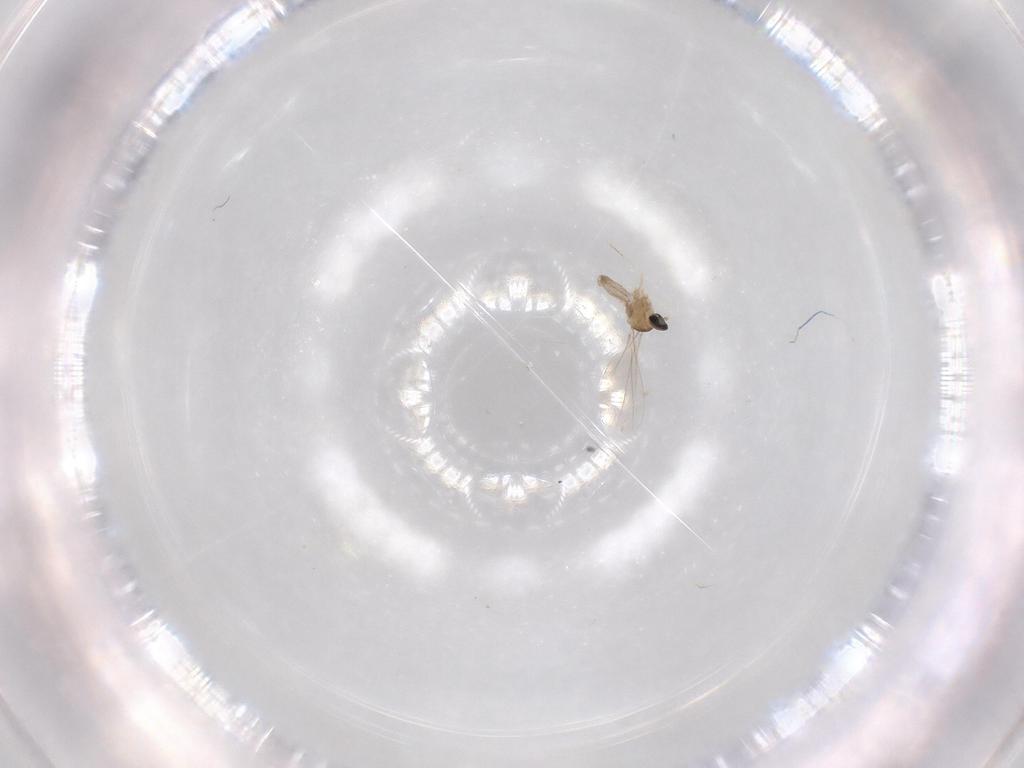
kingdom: Animalia
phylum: Arthropoda
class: Insecta
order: Diptera
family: Cecidomyiidae
